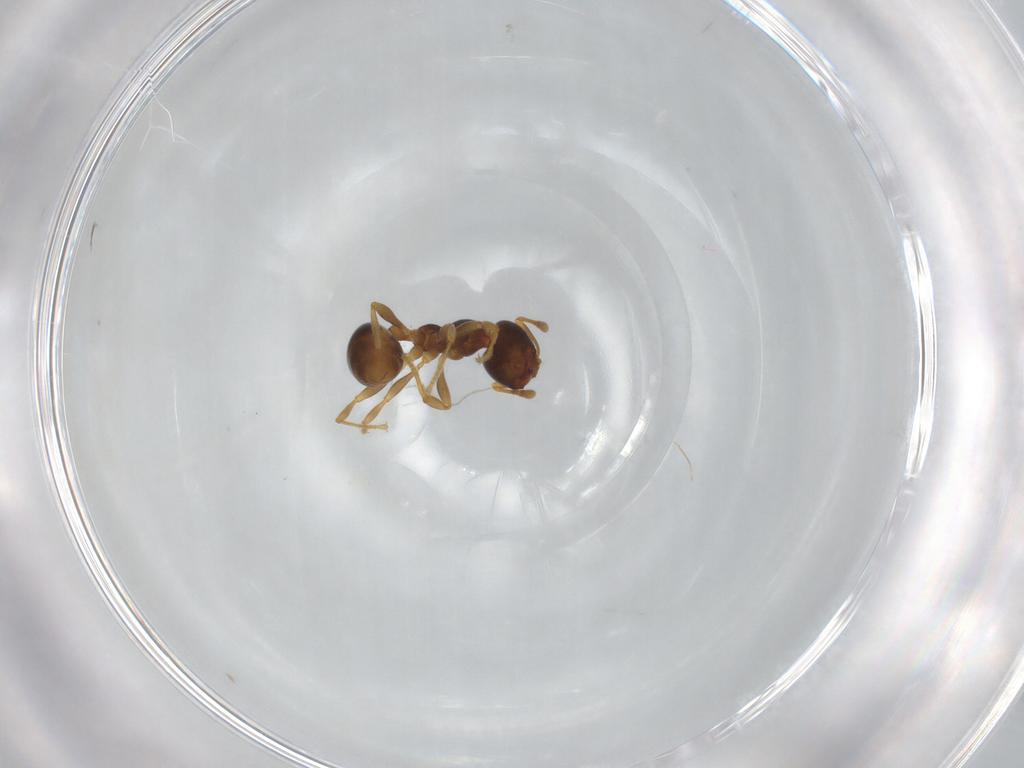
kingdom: Animalia
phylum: Arthropoda
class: Insecta
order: Hymenoptera
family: Formicidae
